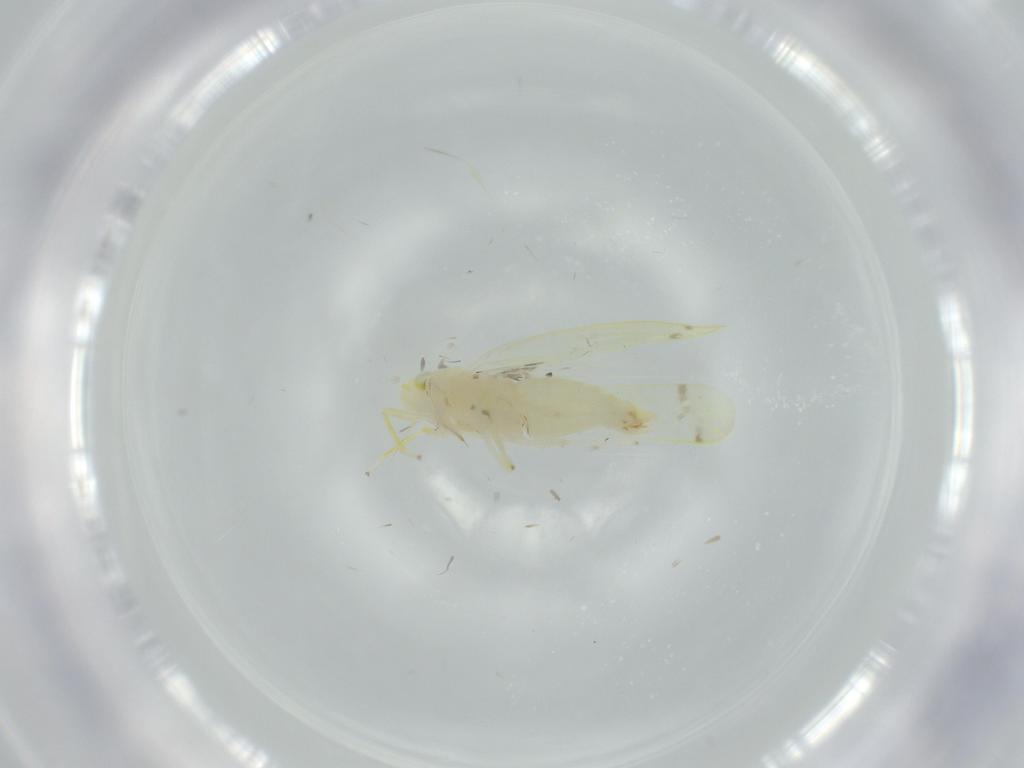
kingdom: Animalia
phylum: Arthropoda
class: Insecta
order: Hemiptera
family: Cicadellidae
